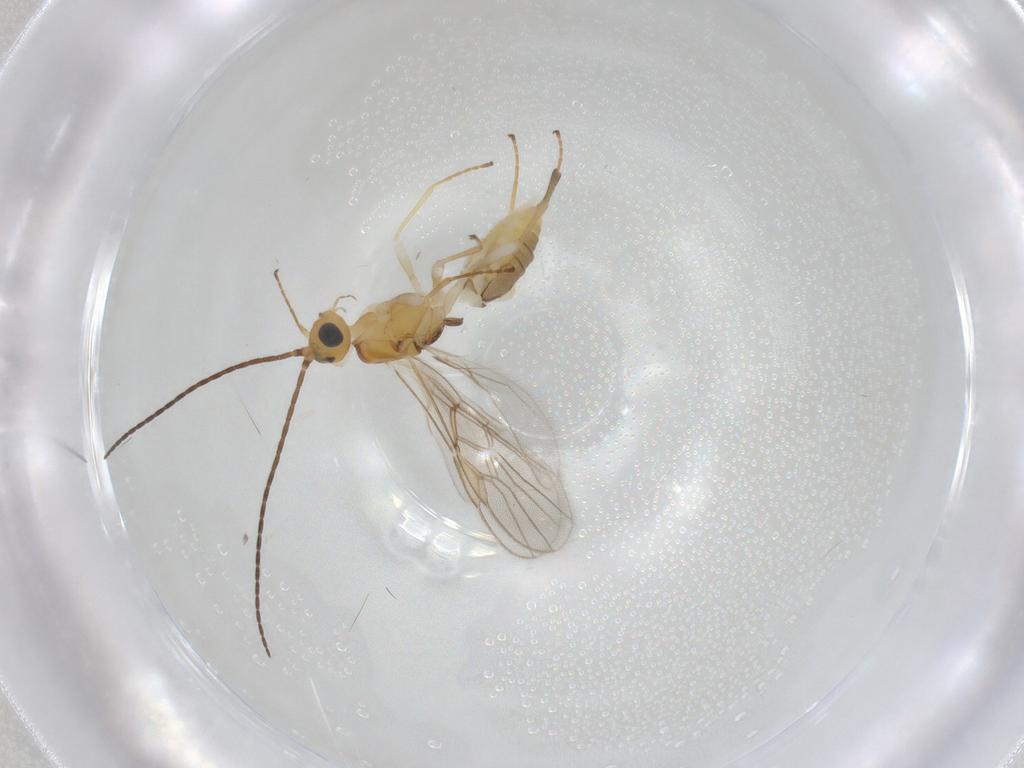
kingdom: Animalia
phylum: Arthropoda
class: Insecta
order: Hymenoptera
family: Braconidae
